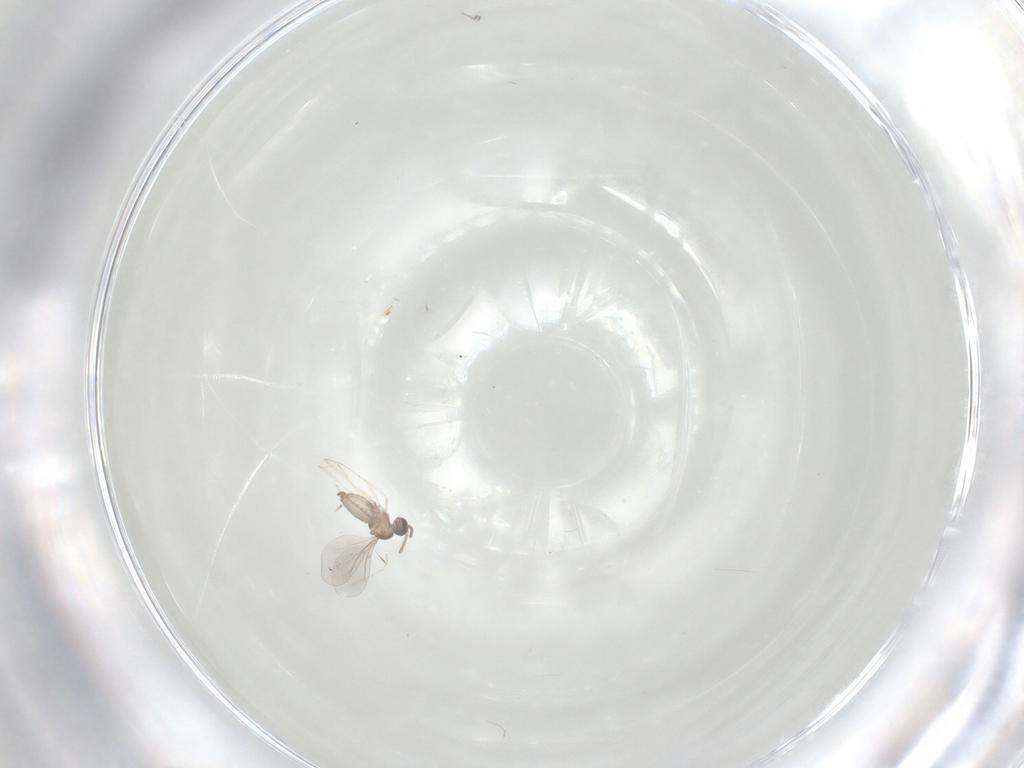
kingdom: Animalia
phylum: Arthropoda
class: Insecta
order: Diptera
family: Cecidomyiidae
